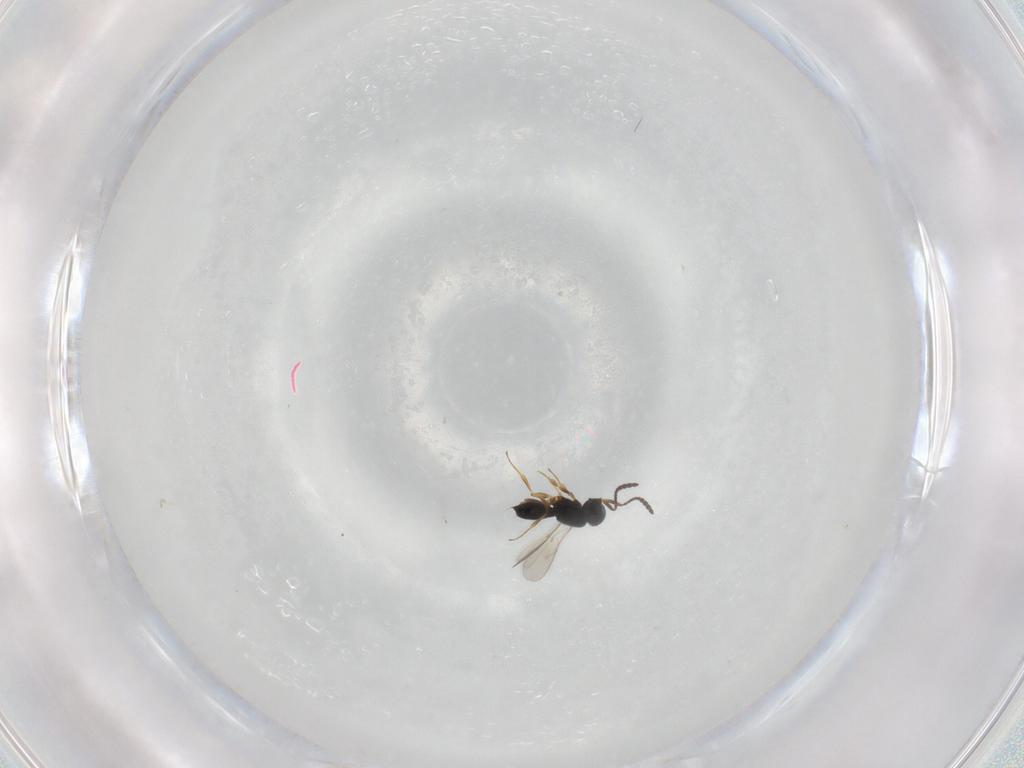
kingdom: Animalia
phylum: Arthropoda
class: Insecta
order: Hymenoptera
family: Scelionidae
